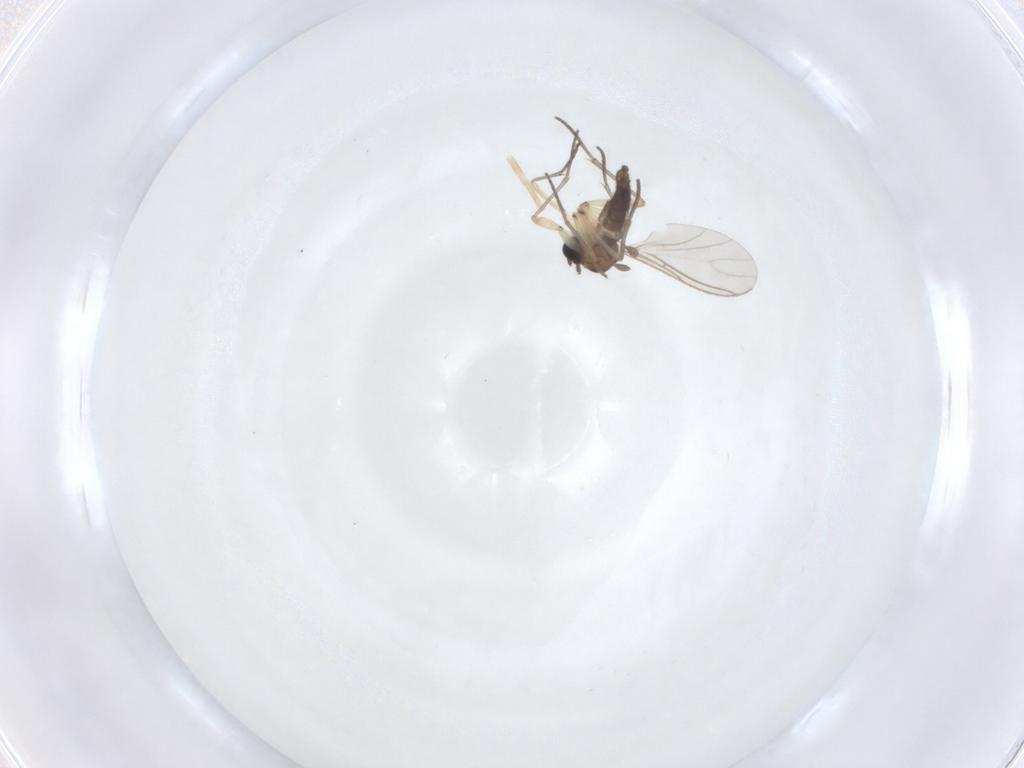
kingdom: Animalia
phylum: Arthropoda
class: Insecta
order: Diptera
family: Sciaridae
